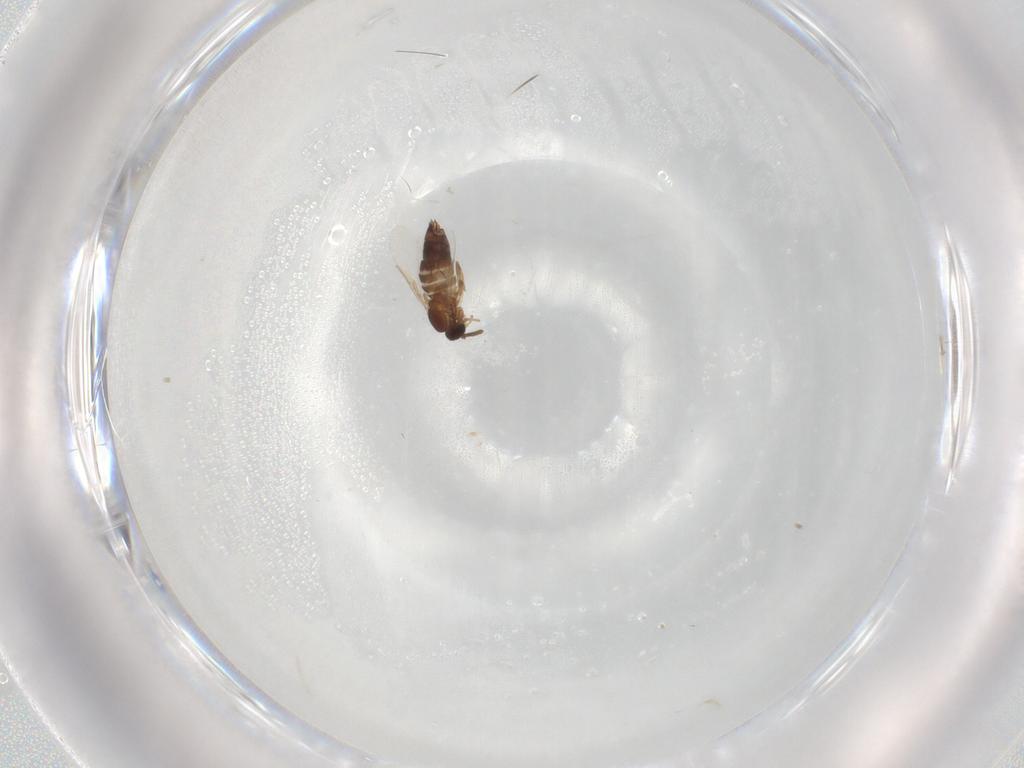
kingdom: Animalia
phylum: Arthropoda
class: Insecta
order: Diptera
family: Scatopsidae
